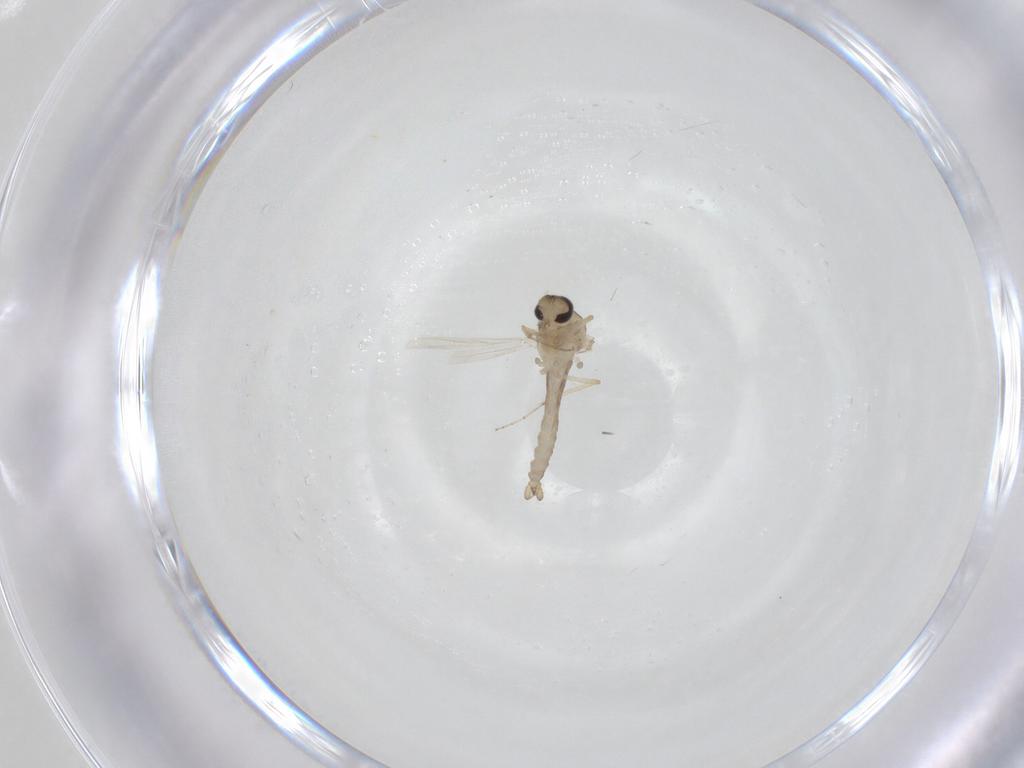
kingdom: Animalia
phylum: Arthropoda
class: Insecta
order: Diptera
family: Ceratopogonidae
